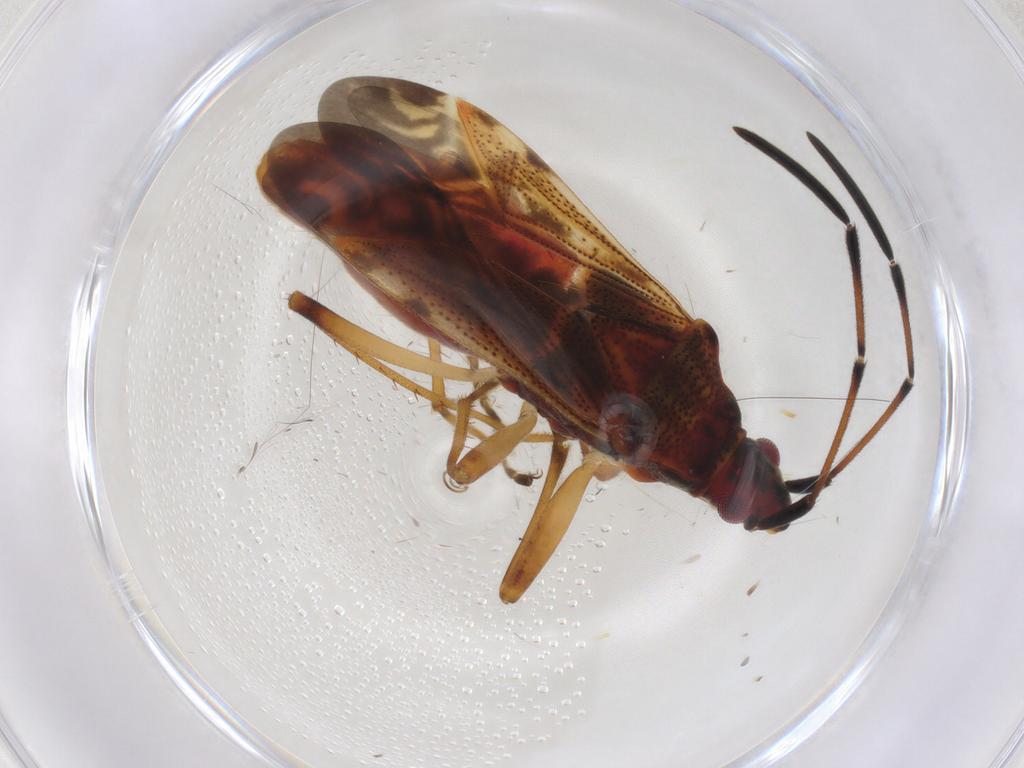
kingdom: Animalia
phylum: Arthropoda
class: Insecta
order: Hemiptera
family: Rhyparochromidae
